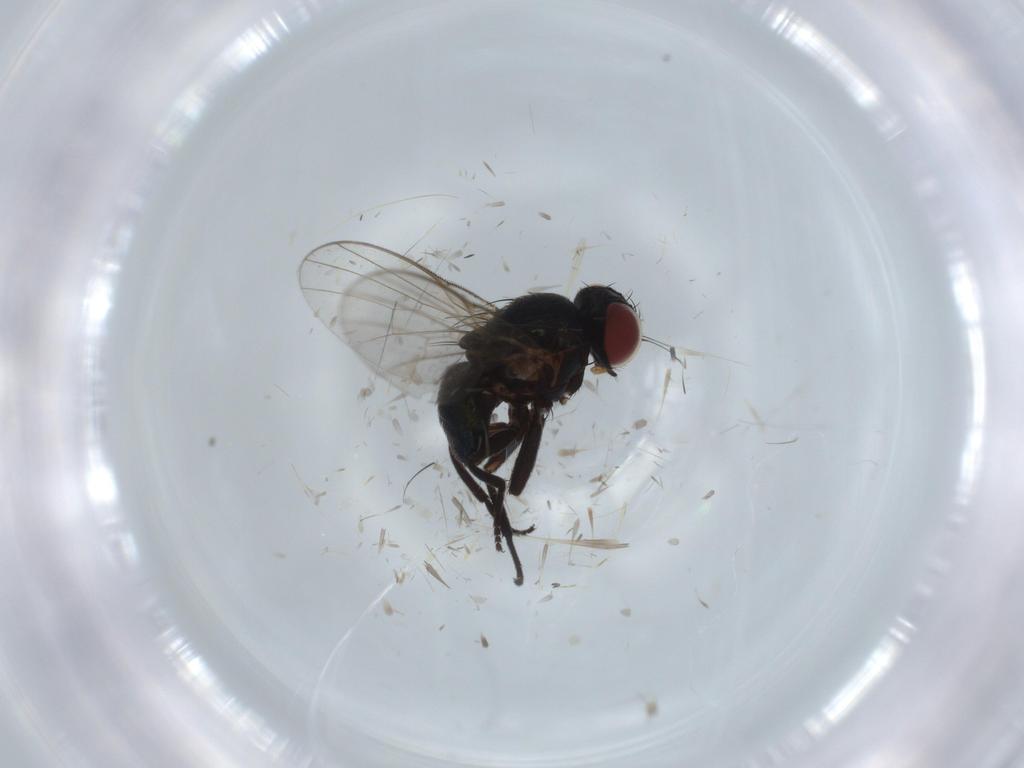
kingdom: Animalia
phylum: Arthropoda
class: Insecta
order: Diptera
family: Agromyzidae
